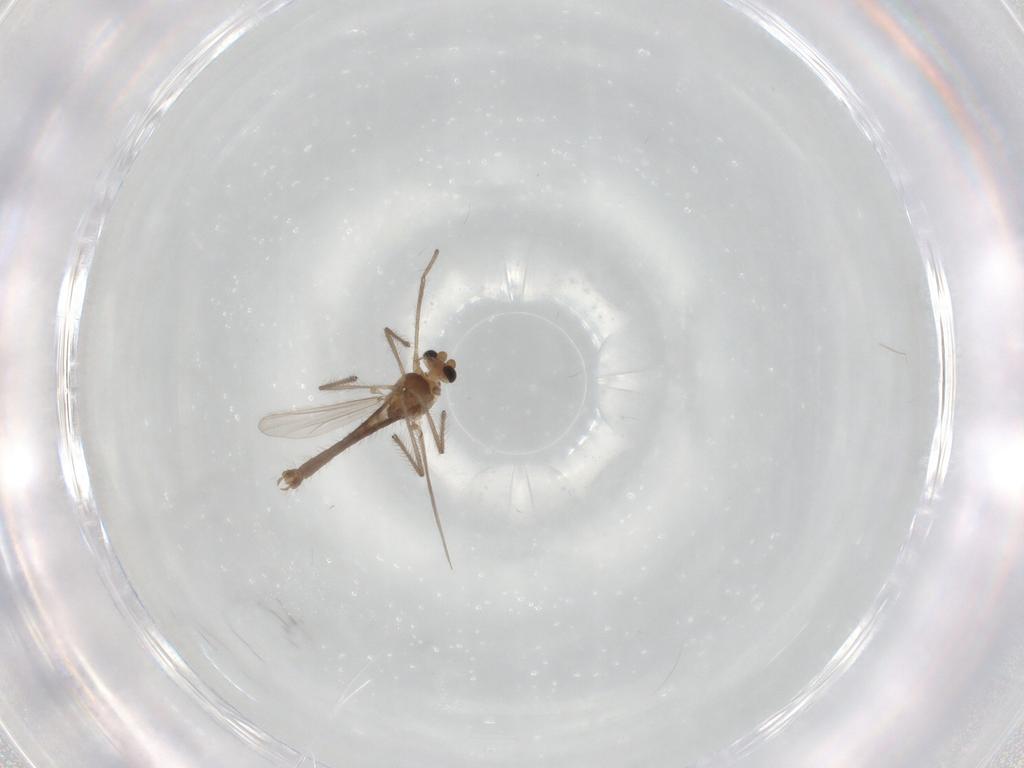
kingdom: Animalia
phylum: Arthropoda
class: Insecta
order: Diptera
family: Chironomidae
